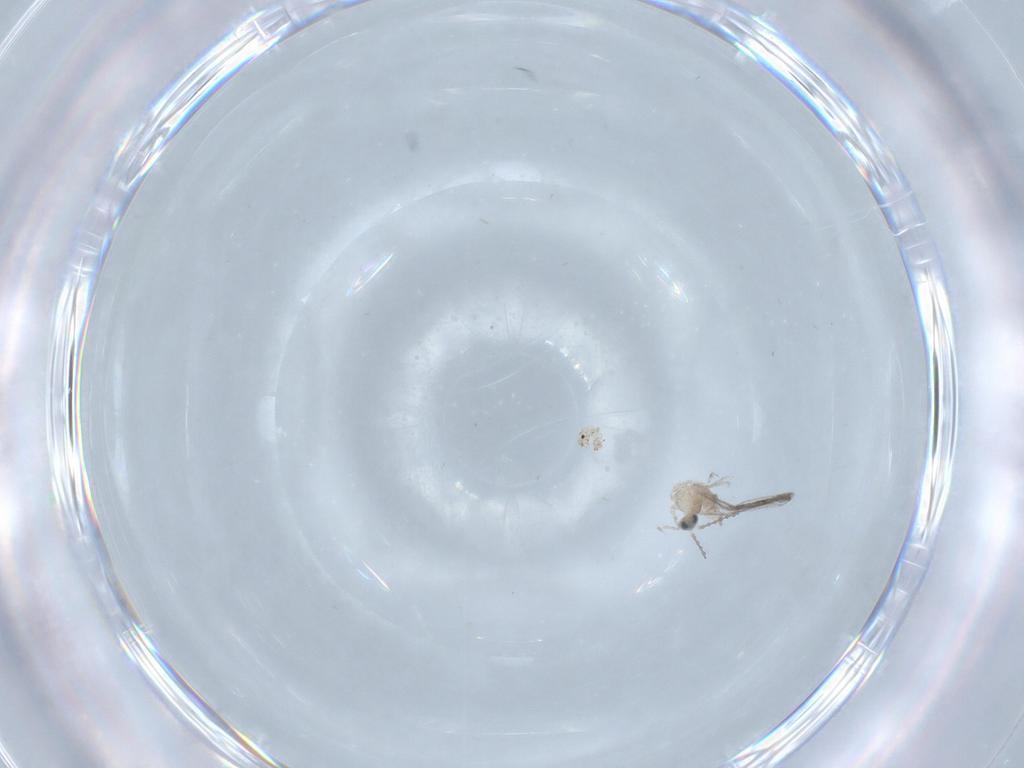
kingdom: Animalia
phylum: Arthropoda
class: Insecta
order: Diptera
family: Cecidomyiidae
